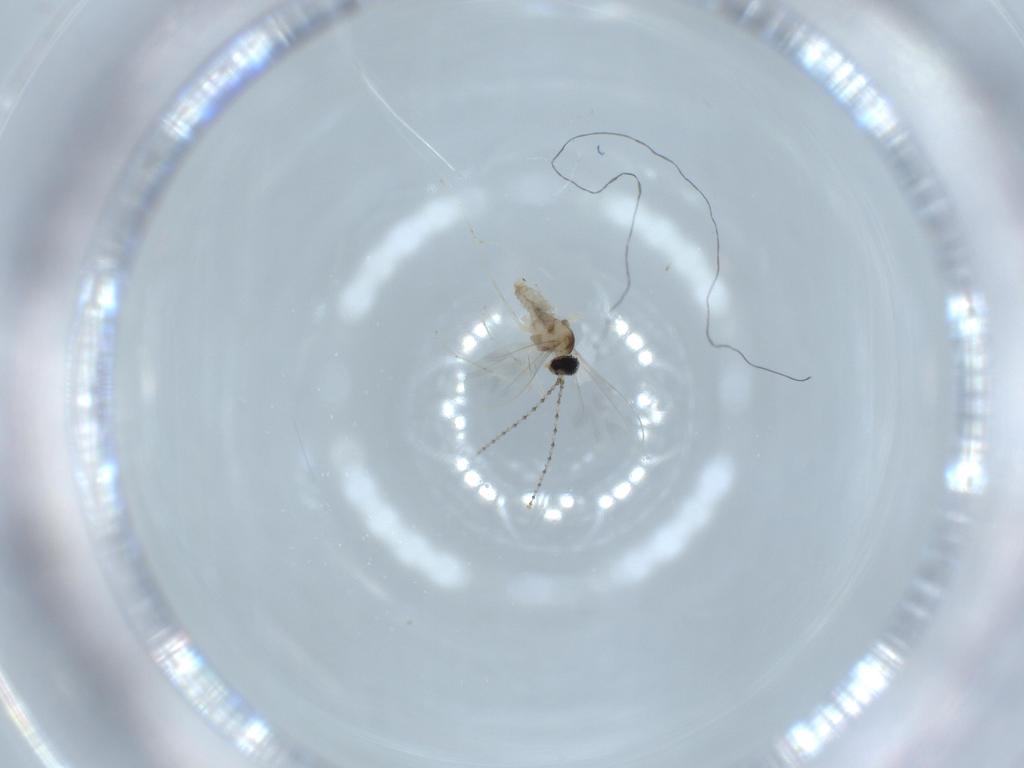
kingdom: Animalia
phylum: Arthropoda
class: Insecta
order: Diptera
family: Cecidomyiidae
